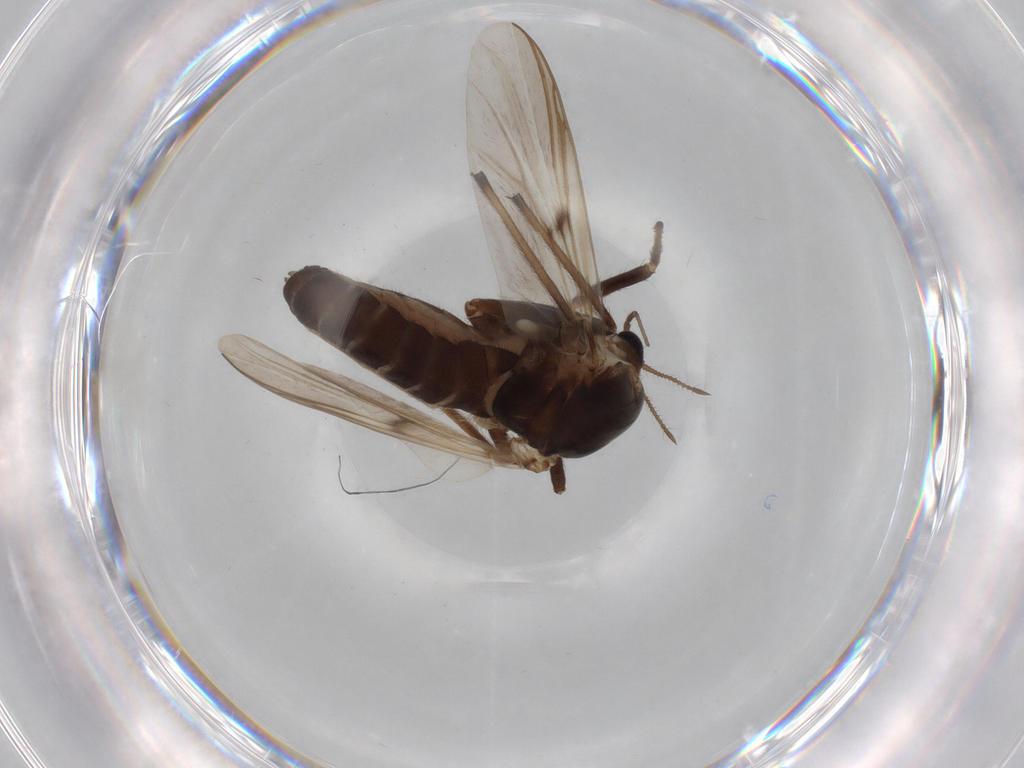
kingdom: Animalia
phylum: Arthropoda
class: Insecta
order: Diptera
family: Chironomidae
